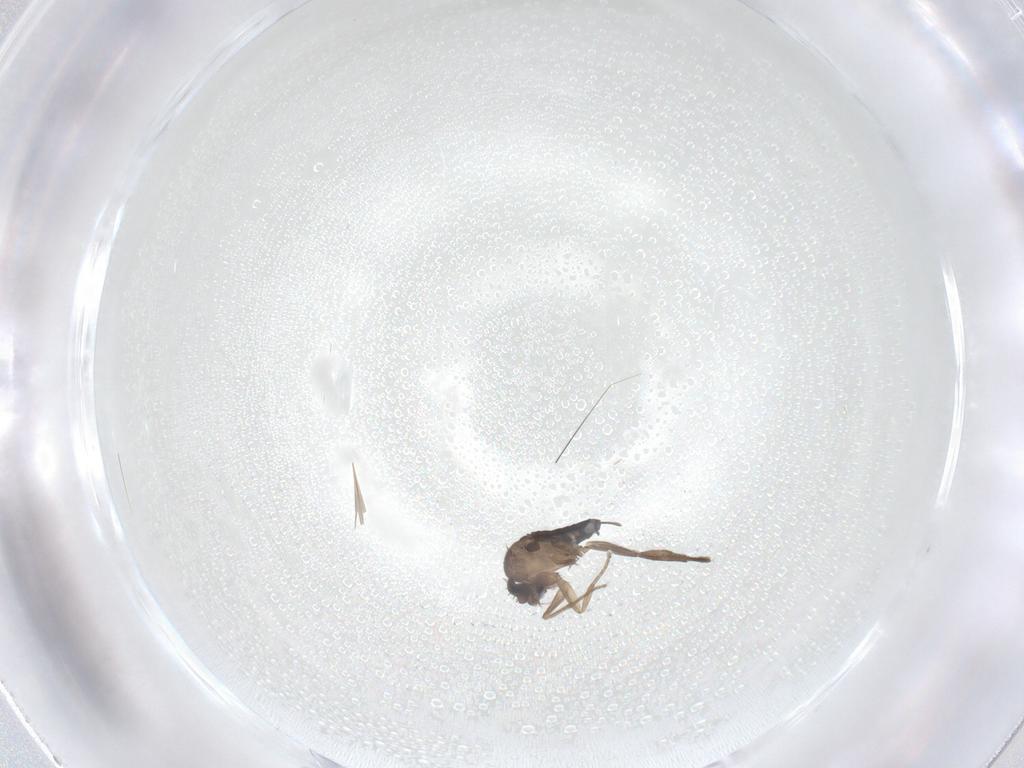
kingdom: Animalia
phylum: Arthropoda
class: Insecta
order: Diptera
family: Phoridae
